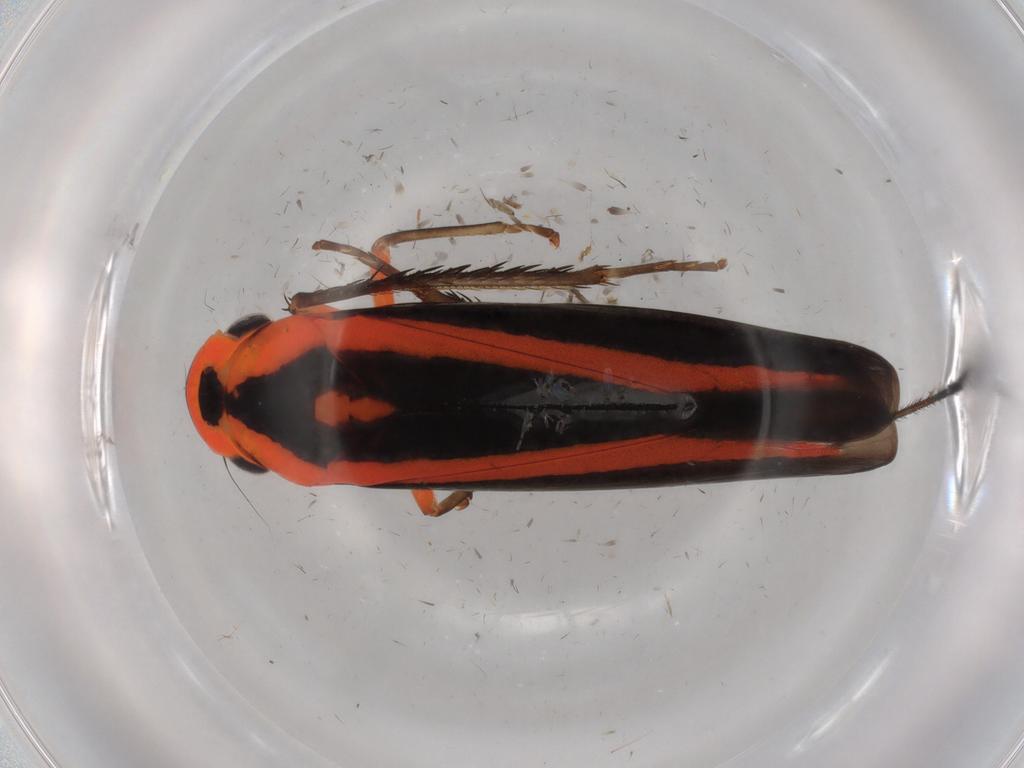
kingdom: Animalia
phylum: Arthropoda
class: Insecta
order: Hemiptera
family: Cicadellidae
